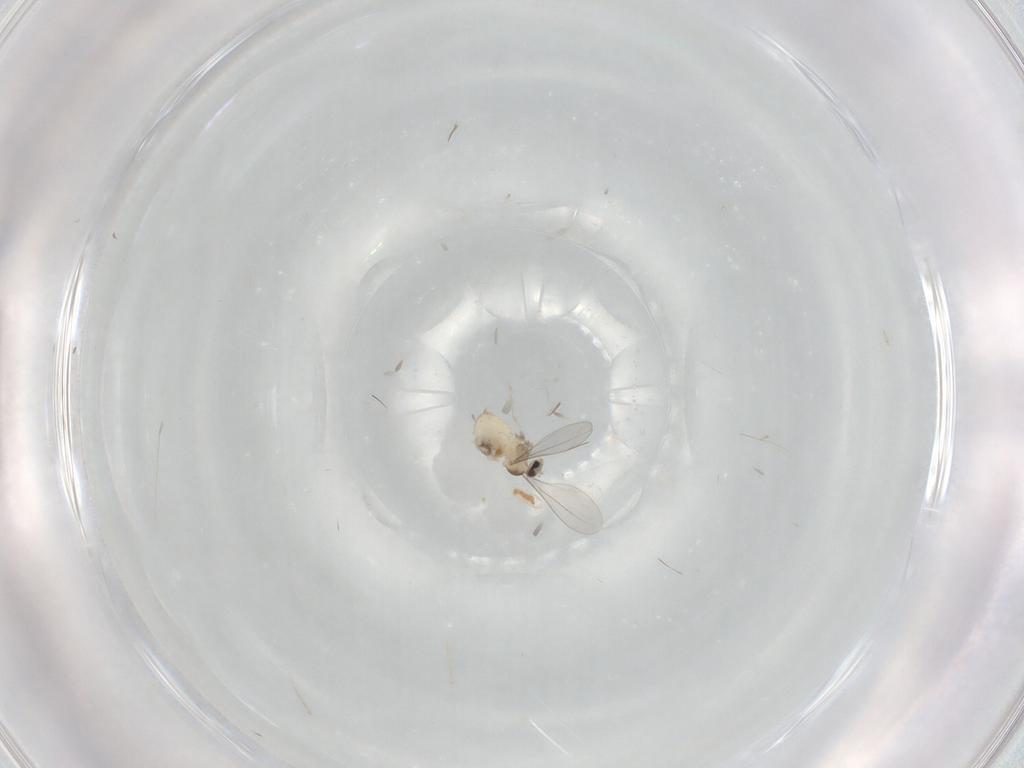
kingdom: Animalia
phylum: Arthropoda
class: Insecta
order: Diptera
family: Cecidomyiidae
